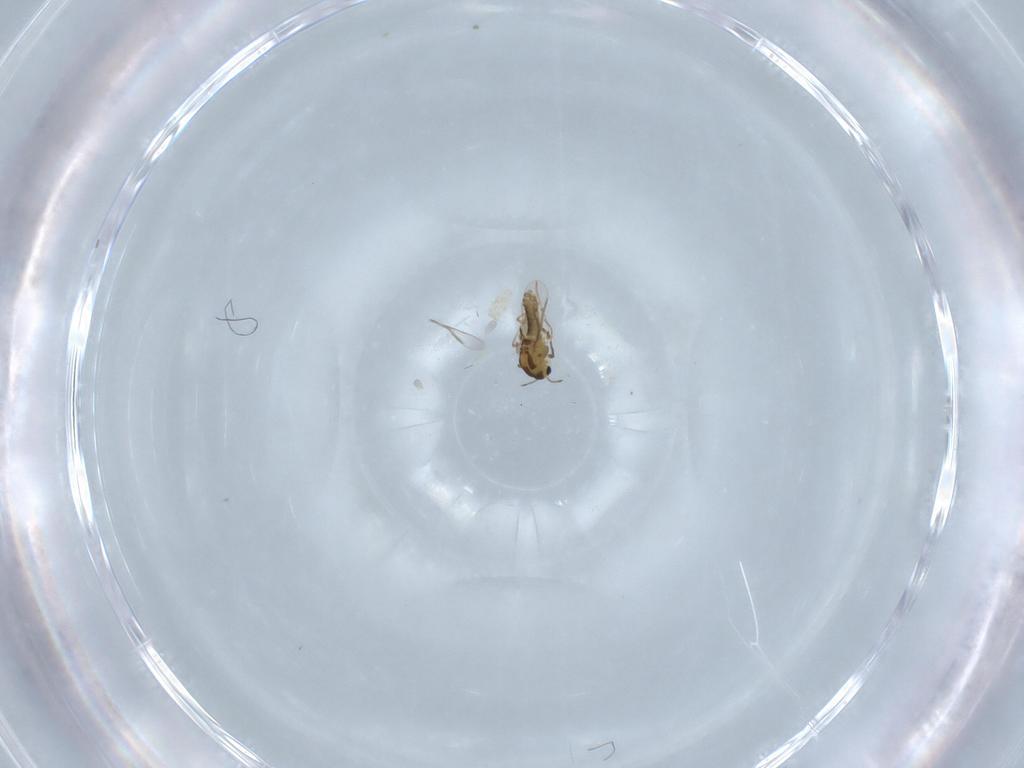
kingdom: Animalia
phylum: Arthropoda
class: Insecta
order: Diptera
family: Chironomidae
